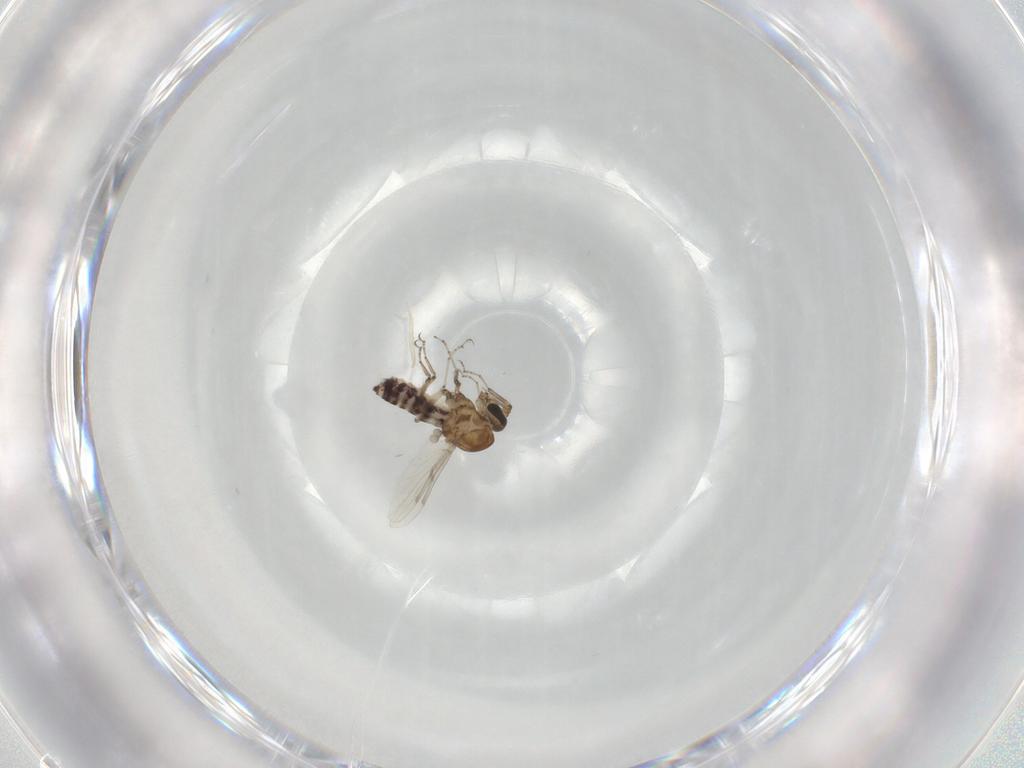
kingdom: Animalia
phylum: Arthropoda
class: Insecta
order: Diptera
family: Ceratopogonidae
